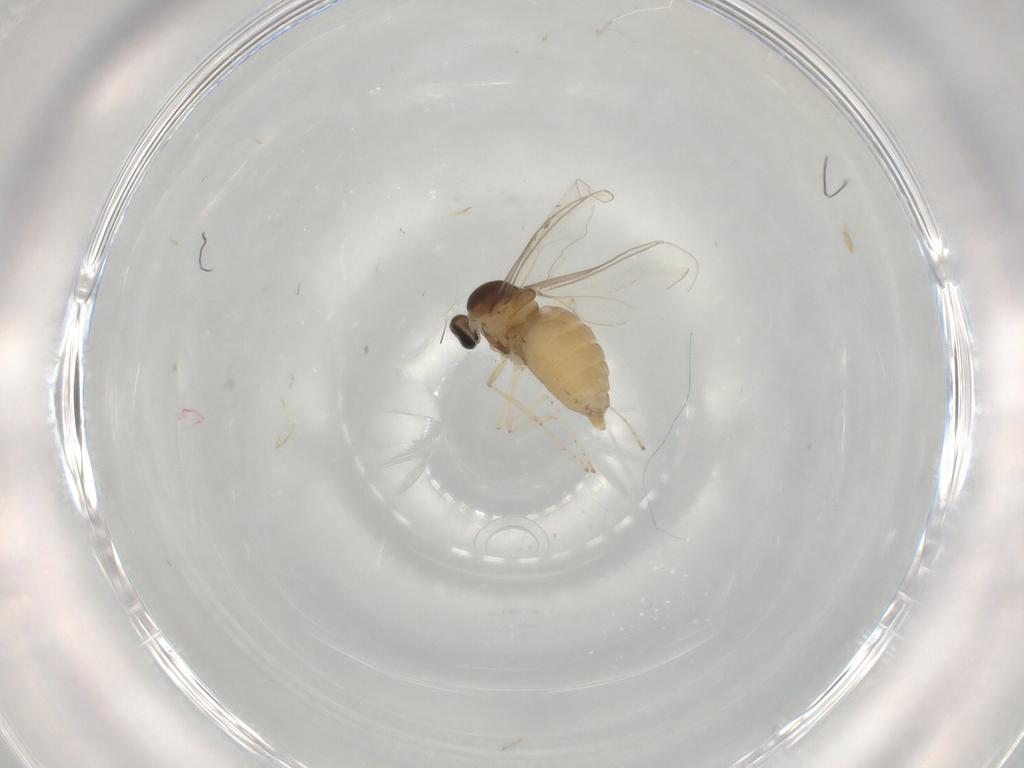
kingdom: Animalia
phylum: Arthropoda
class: Insecta
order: Diptera
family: Cecidomyiidae
